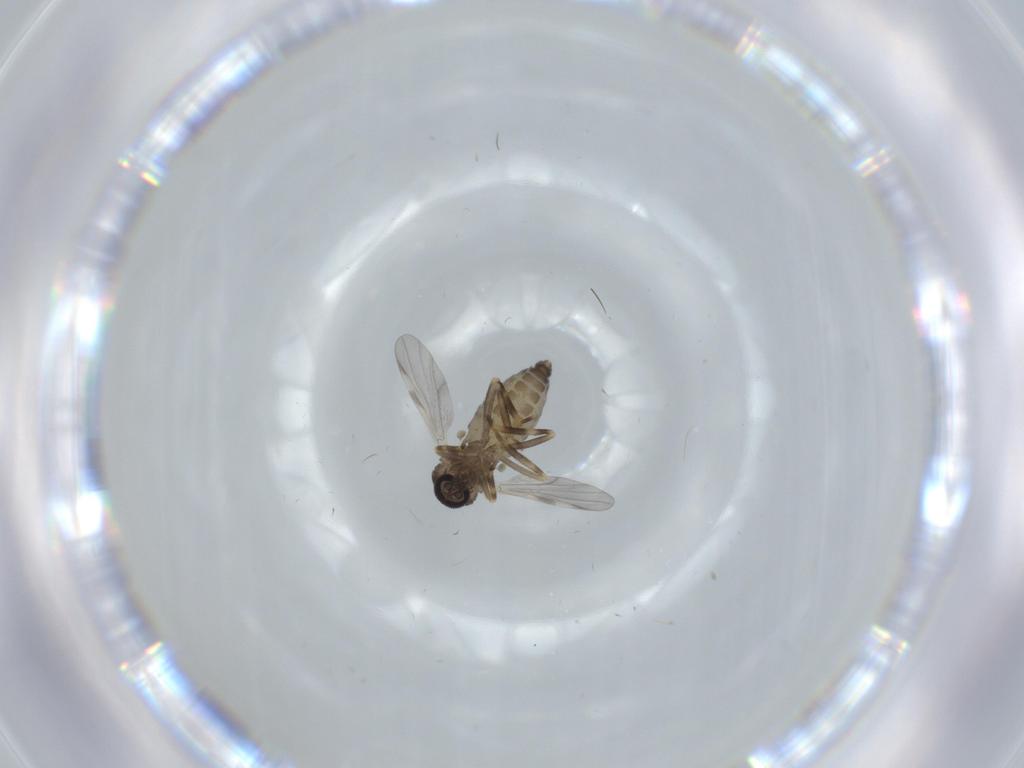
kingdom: Animalia
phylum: Arthropoda
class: Insecta
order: Diptera
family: Ceratopogonidae
